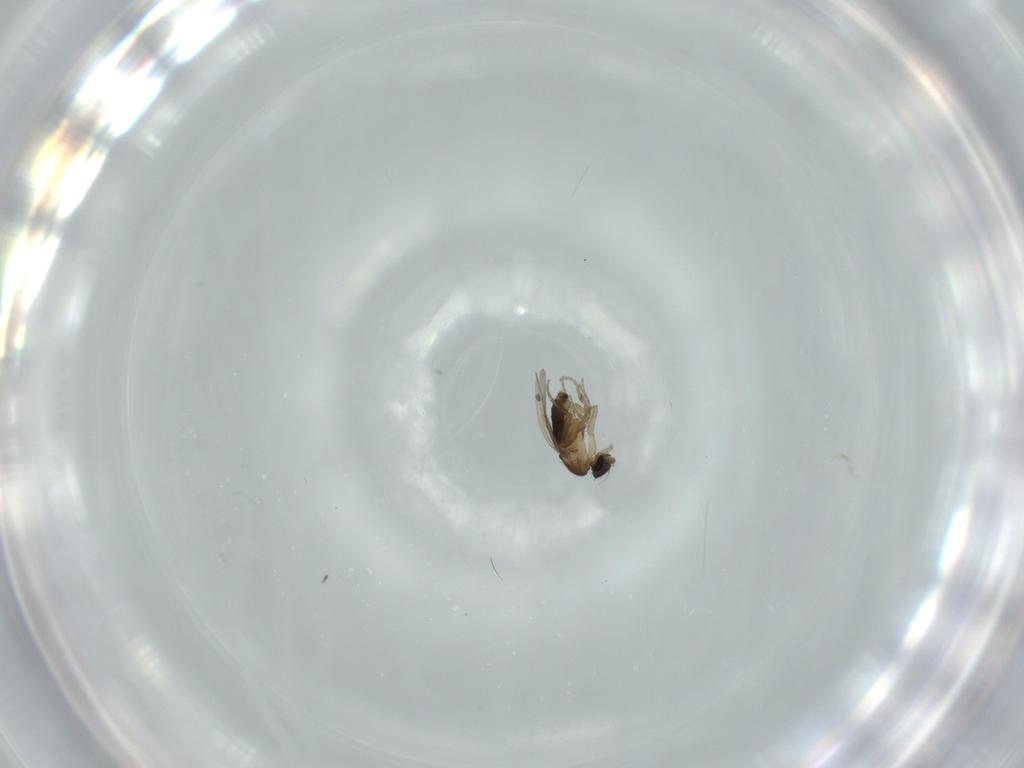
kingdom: Animalia
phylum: Arthropoda
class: Insecta
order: Diptera
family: Phoridae
